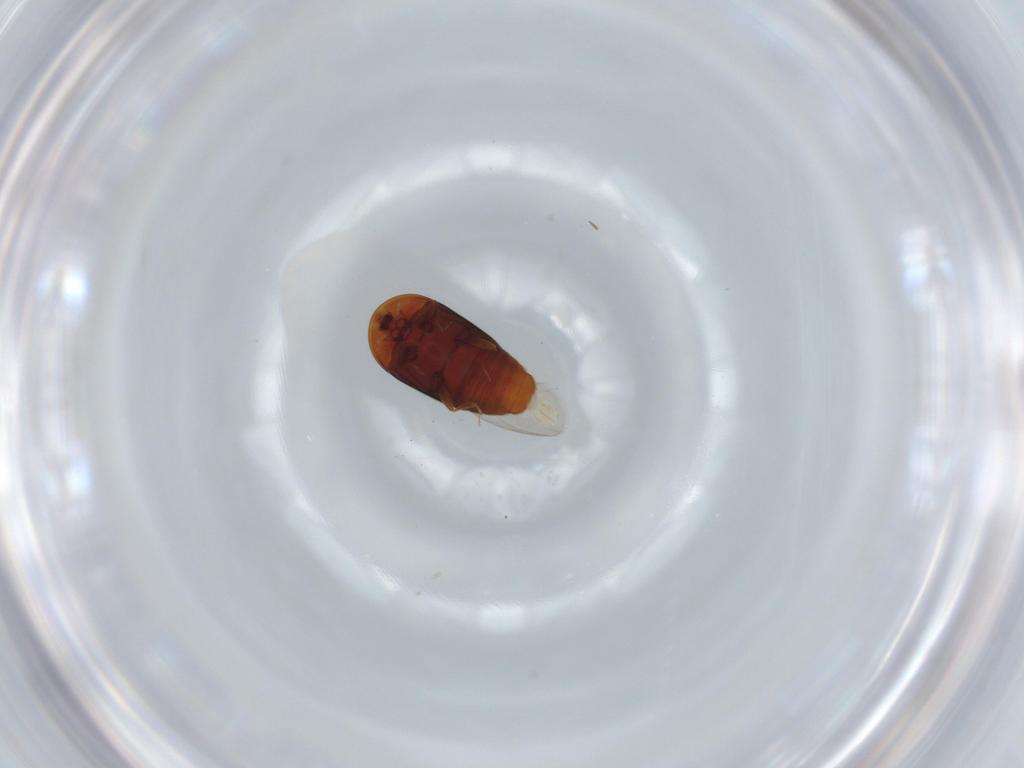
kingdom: Animalia
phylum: Arthropoda
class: Insecta
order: Coleoptera
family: Corylophidae
